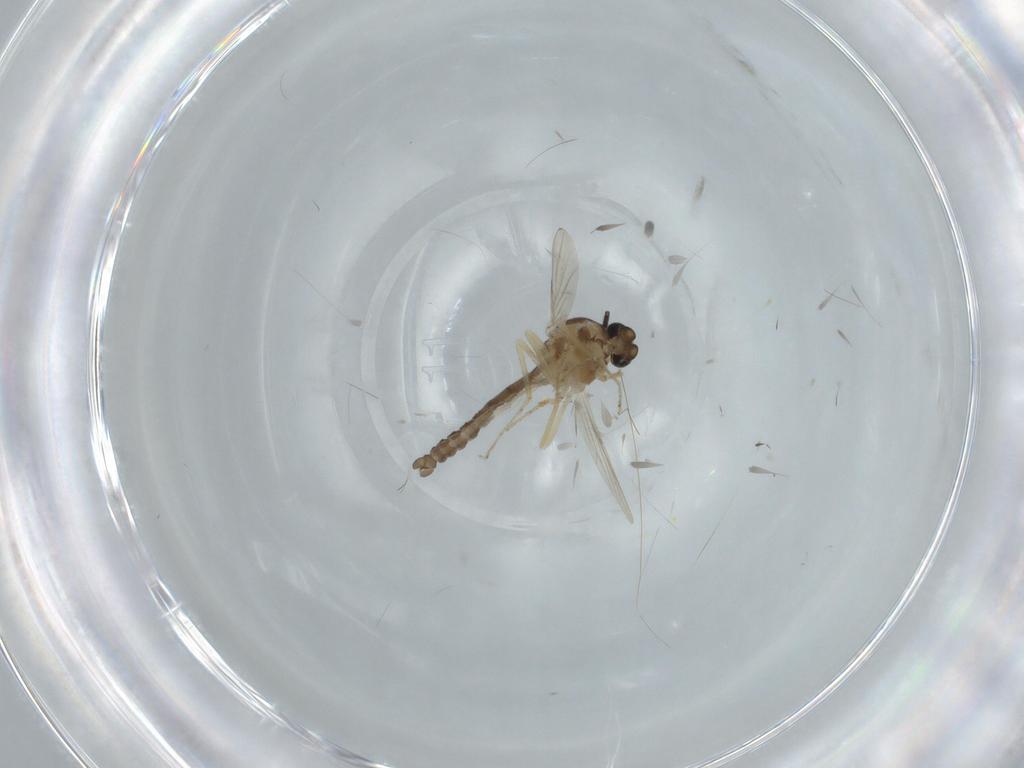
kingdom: Animalia
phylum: Arthropoda
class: Insecta
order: Diptera
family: Ceratopogonidae
